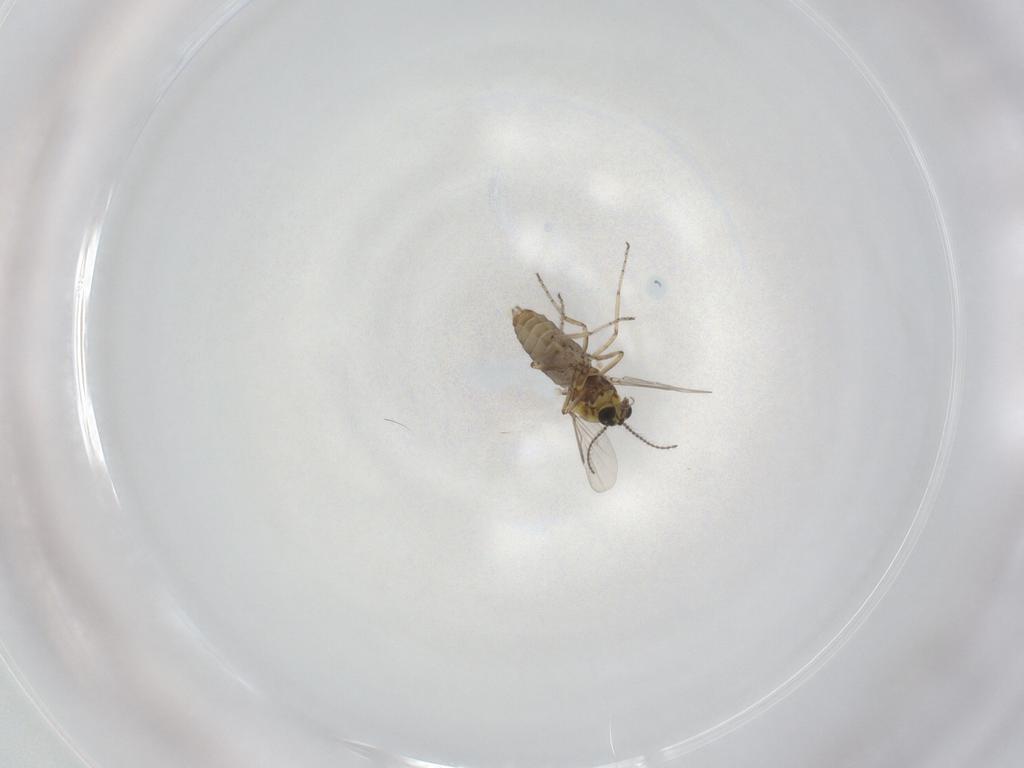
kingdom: Animalia
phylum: Arthropoda
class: Insecta
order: Diptera
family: Ceratopogonidae
